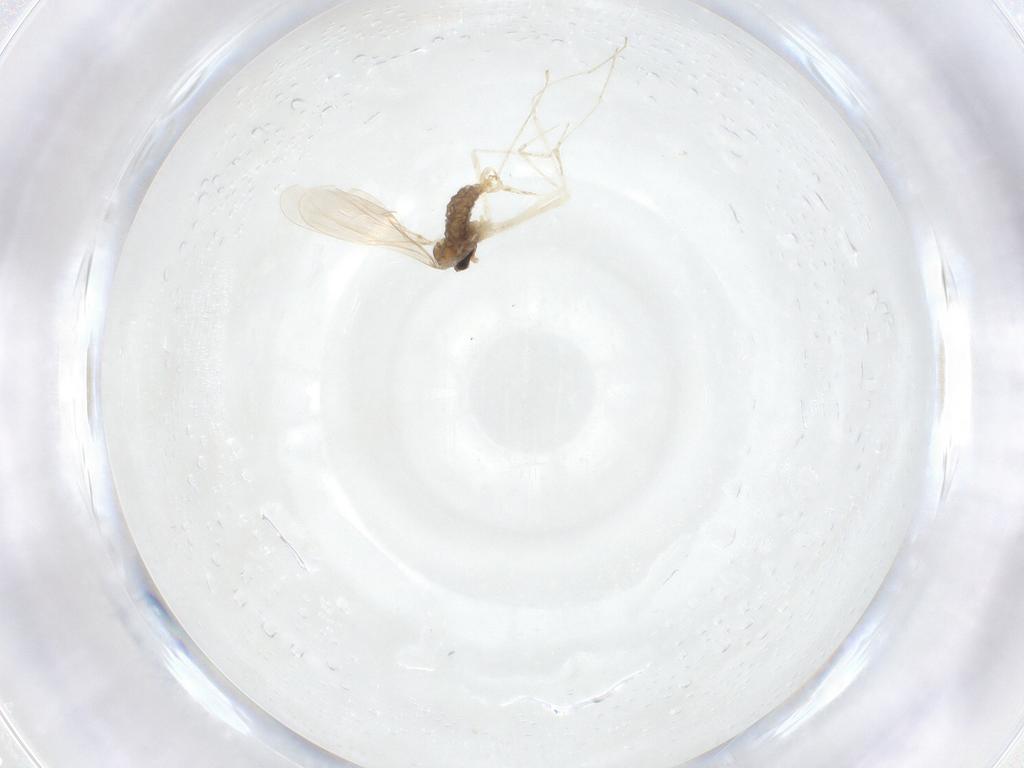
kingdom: Animalia
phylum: Arthropoda
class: Insecta
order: Diptera
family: Cecidomyiidae
